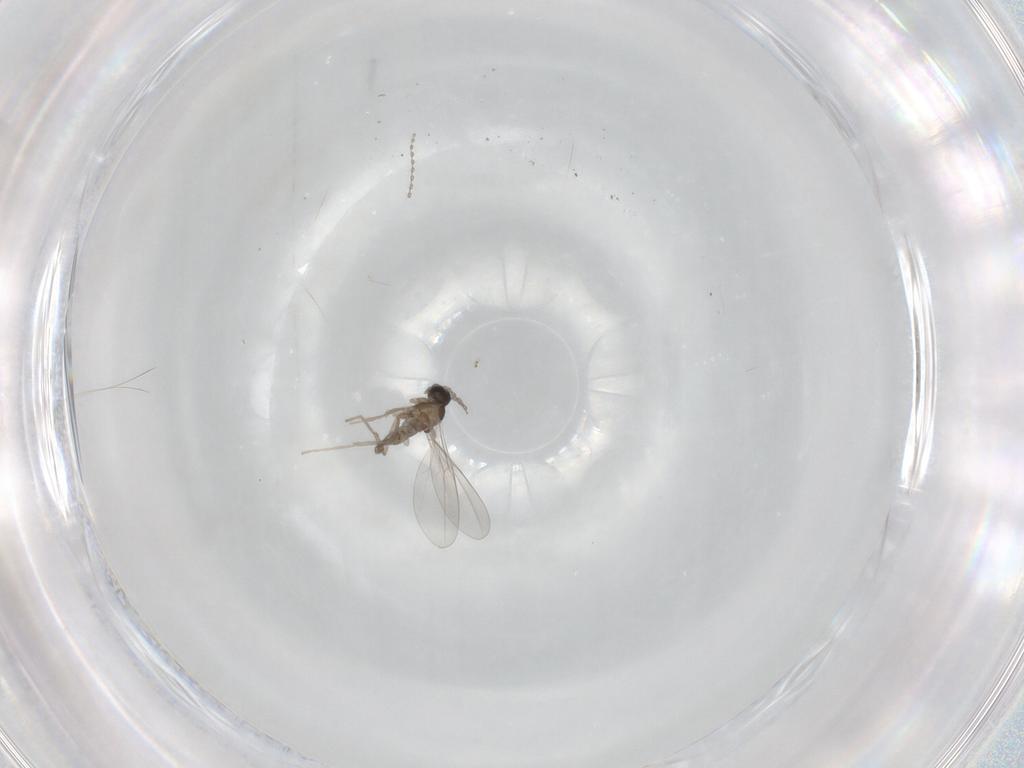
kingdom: Animalia
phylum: Arthropoda
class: Insecta
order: Diptera
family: Cecidomyiidae
